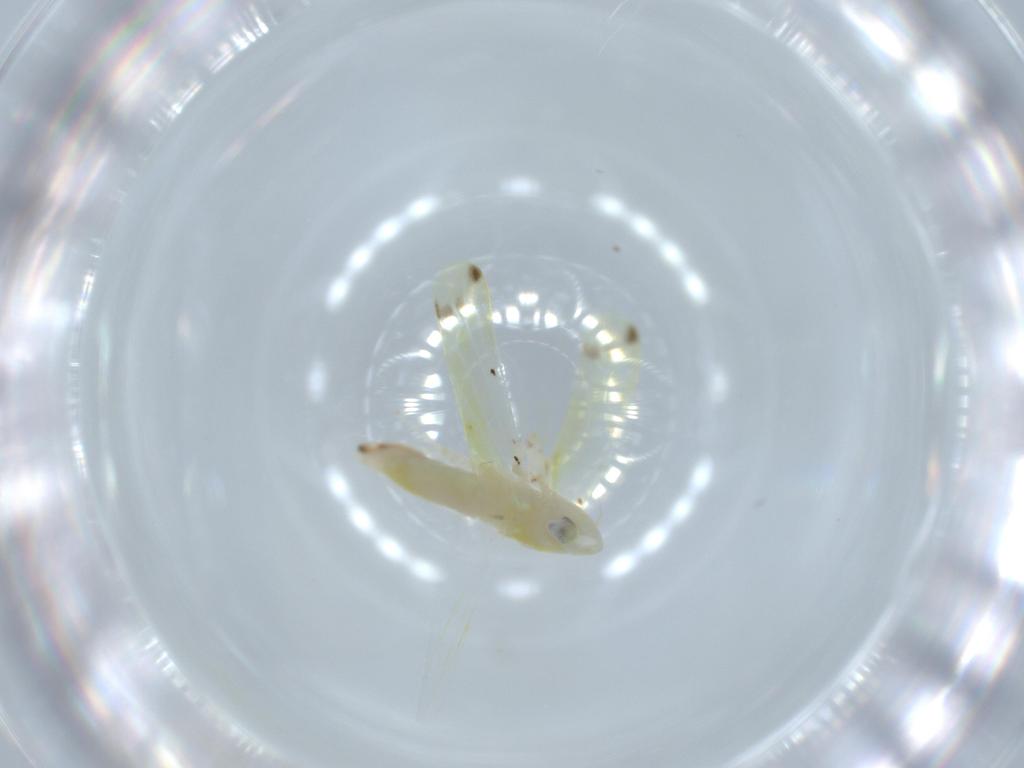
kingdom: Animalia
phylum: Arthropoda
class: Insecta
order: Hemiptera
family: Cicadellidae
